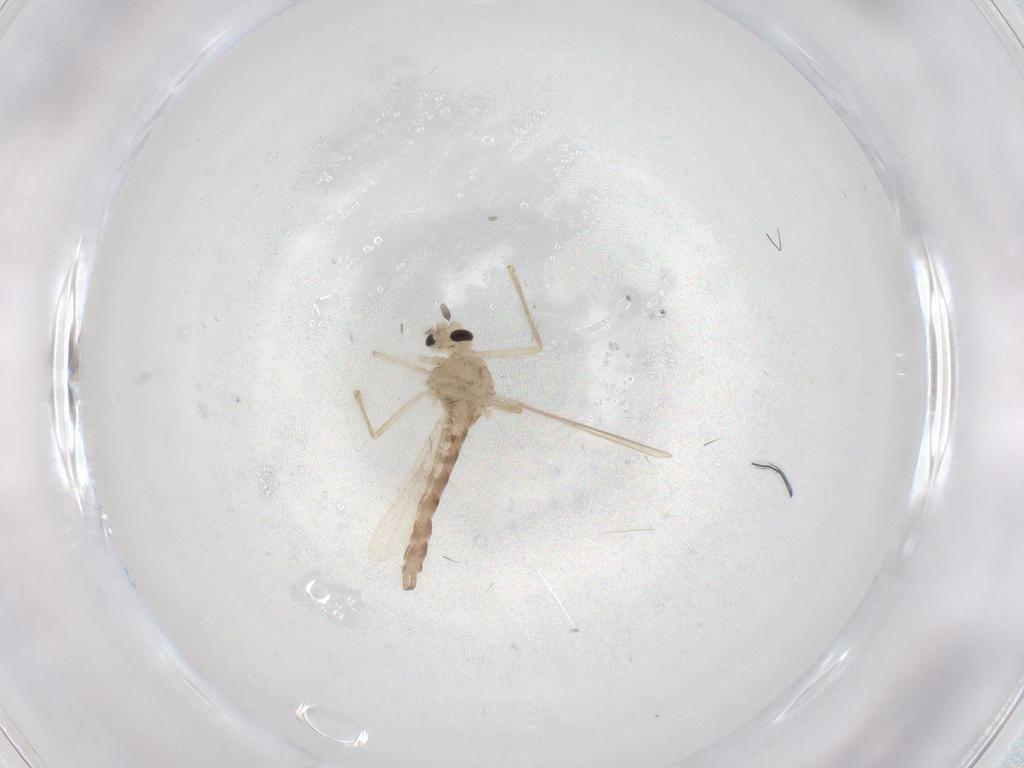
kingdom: Animalia
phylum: Arthropoda
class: Insecta
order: Diptera
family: Chironomidae
